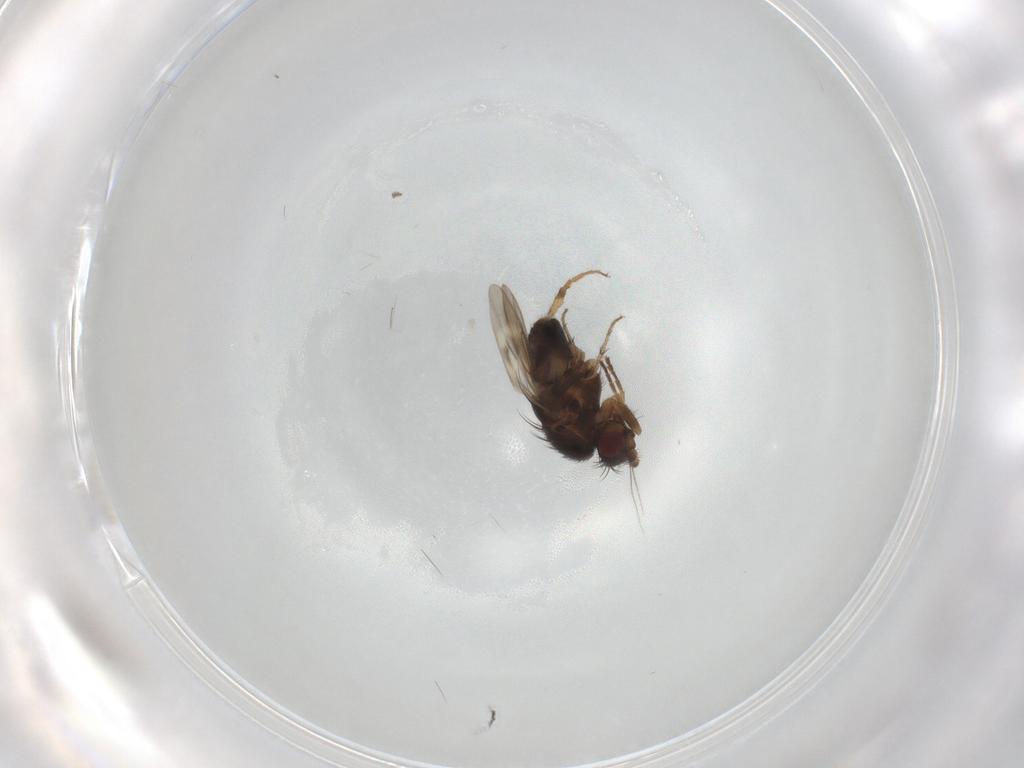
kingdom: Animalia
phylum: Arthropoda
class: Insecta
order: Diptera
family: Sphaeroceridae
